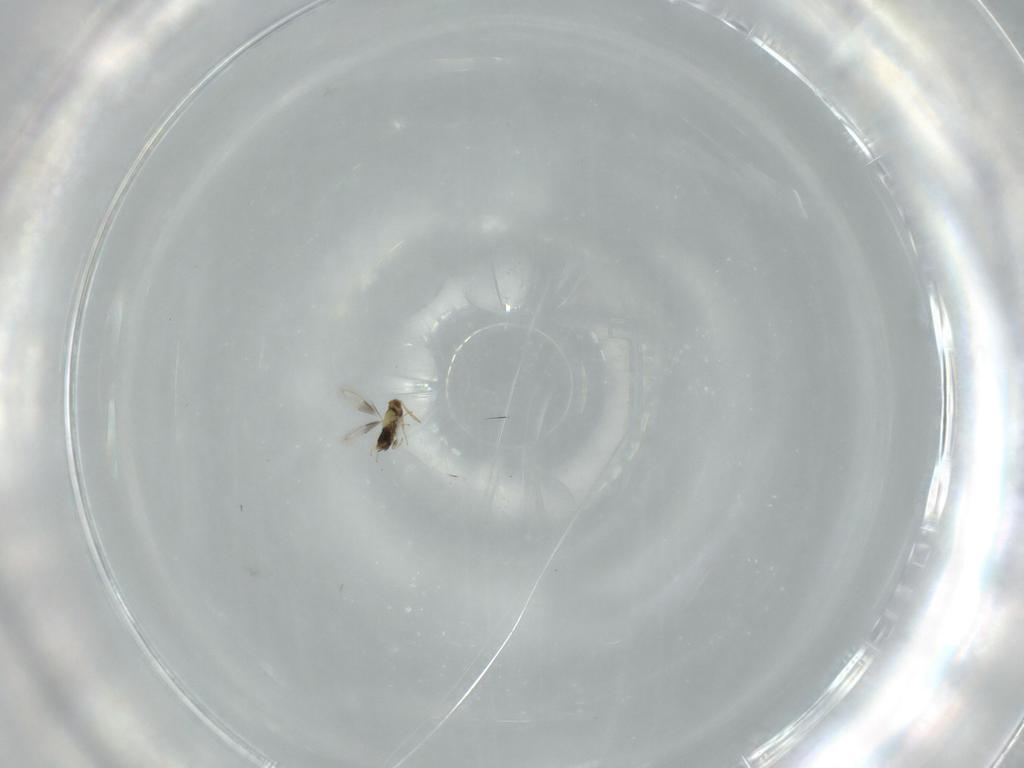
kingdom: Animalia
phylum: Arthropoda
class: Insecta
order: Hymenoptera
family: Aphelinidae
